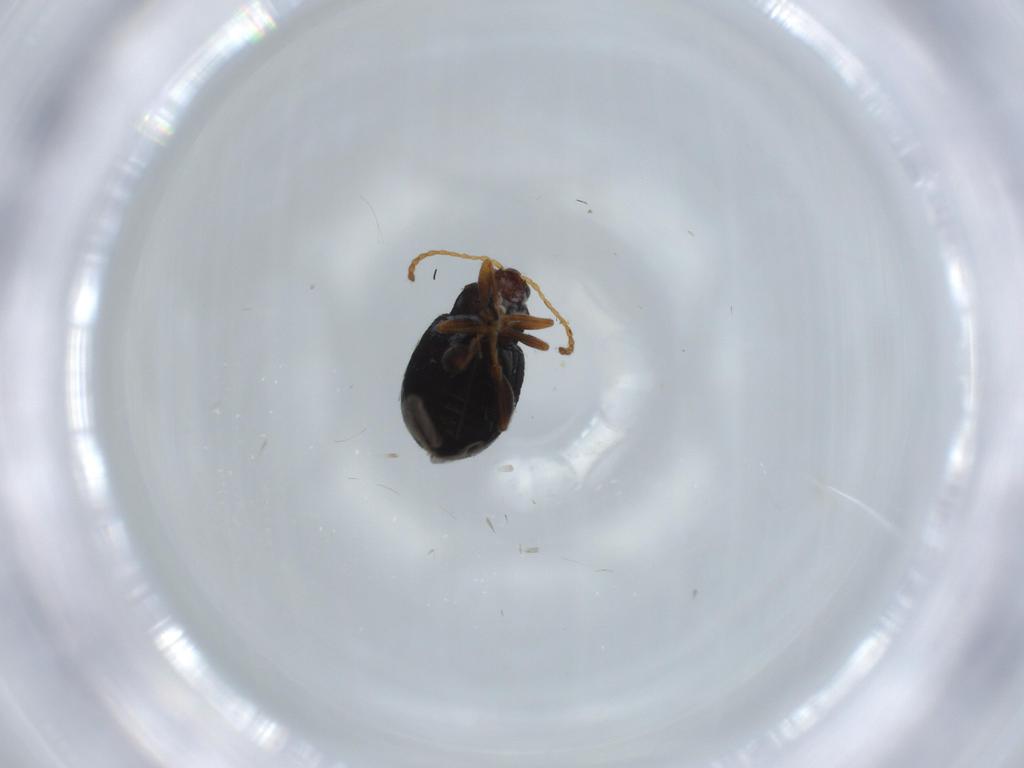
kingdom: Animalia
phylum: Arthropoda
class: Insecta
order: Coleoptera
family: Chrysomelidae
